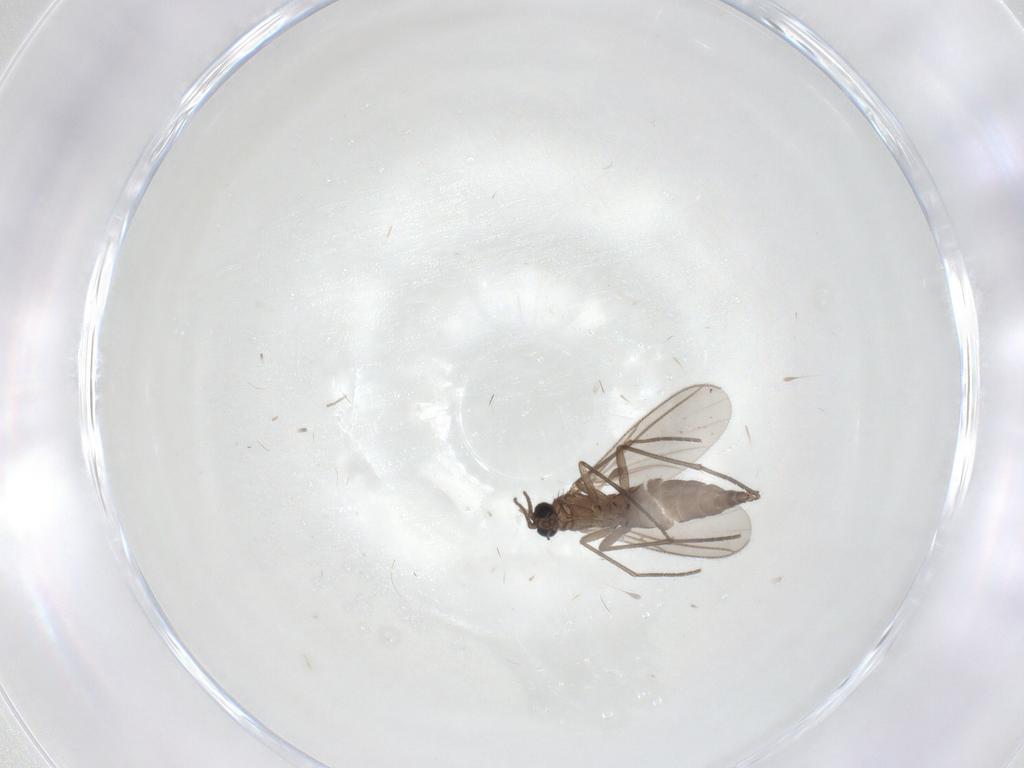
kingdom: Animalia
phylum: Arthropoda
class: Insecta
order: Diptera
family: Sciaridae
